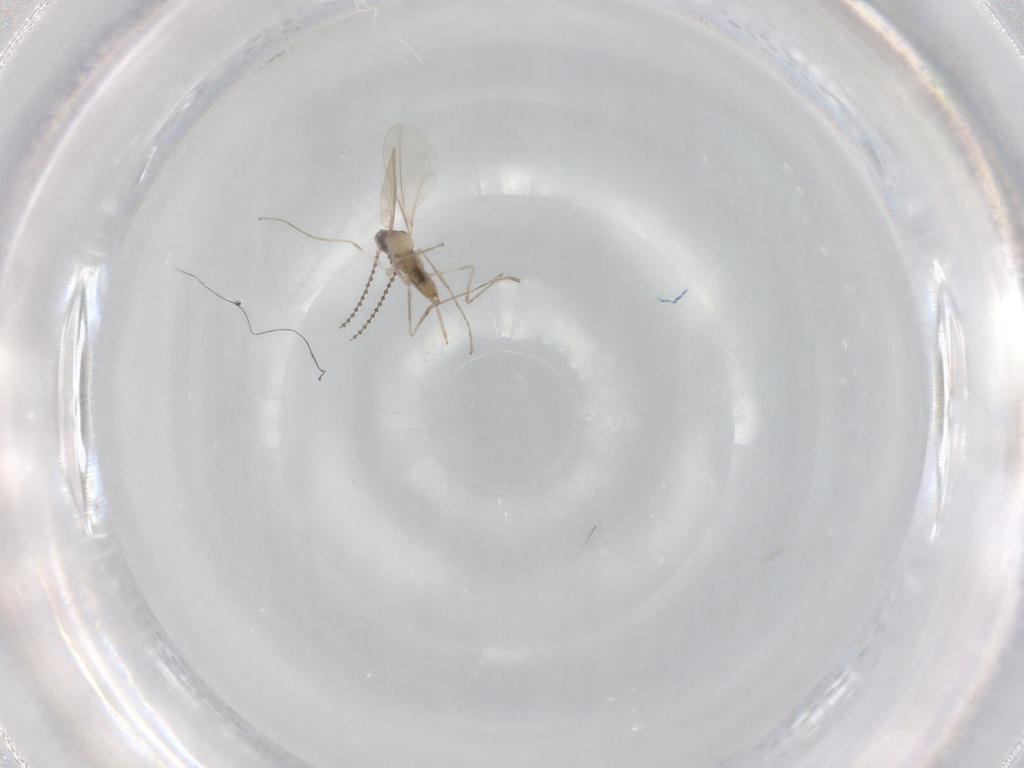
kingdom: Animalia
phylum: Arthropoda
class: Insecta
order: Diptera
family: Cecidomyiidae
